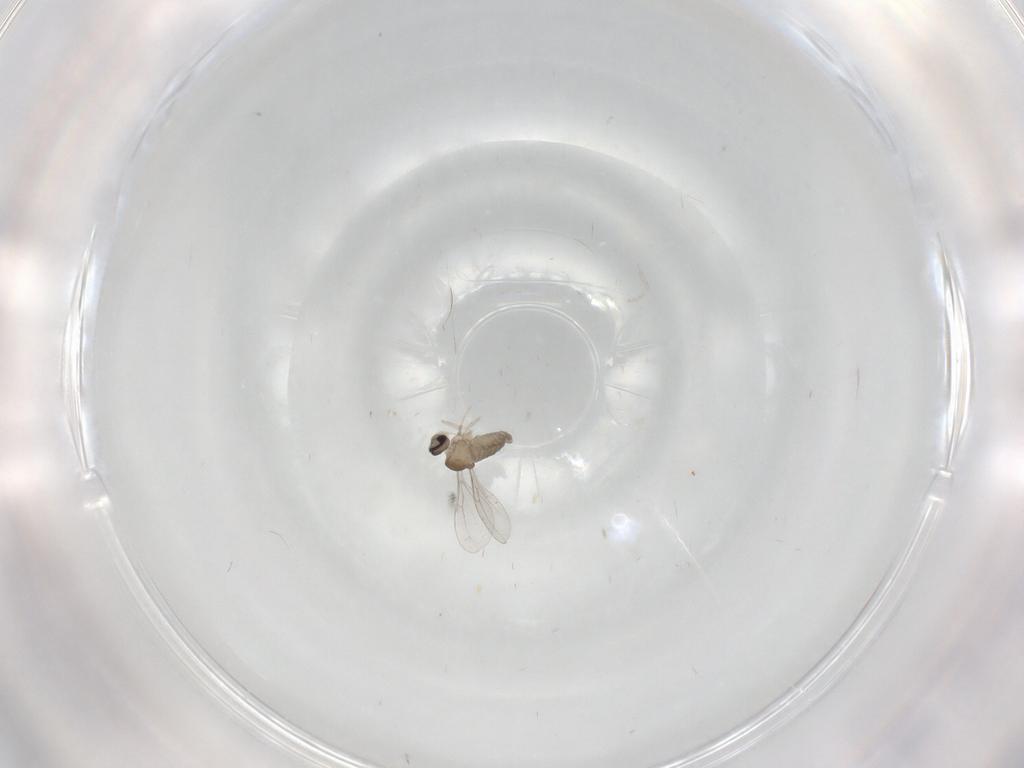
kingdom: Animalia
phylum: Arthropoda
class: Insecta
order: Diptera
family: Cecidomyiidae
